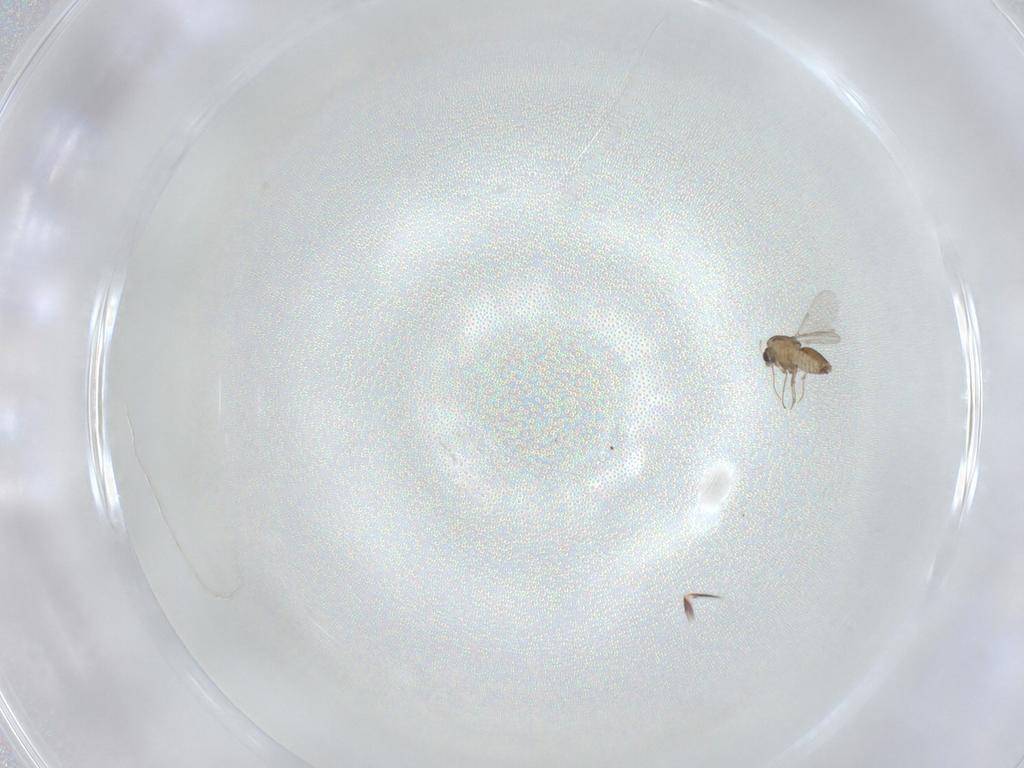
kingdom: Animalia
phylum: Arthropoda
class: Insecta
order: Diptera
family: Chironomidae
